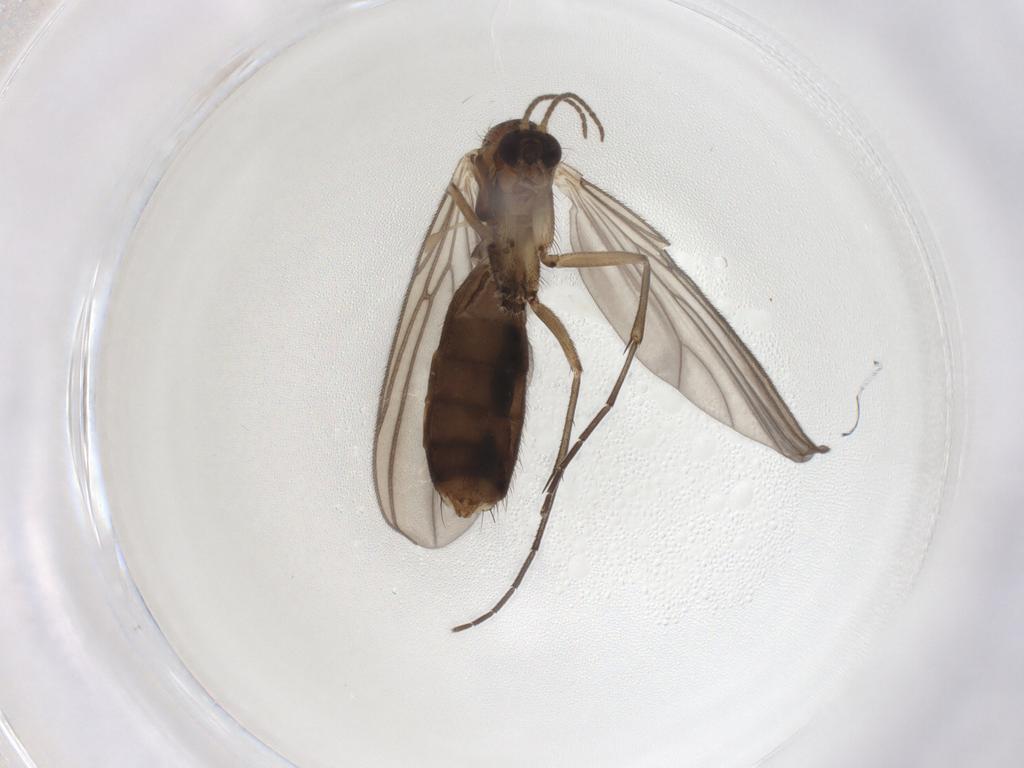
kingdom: Animalia
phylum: Arthropoda
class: Insecta
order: Diptera
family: Mycetophilidae
